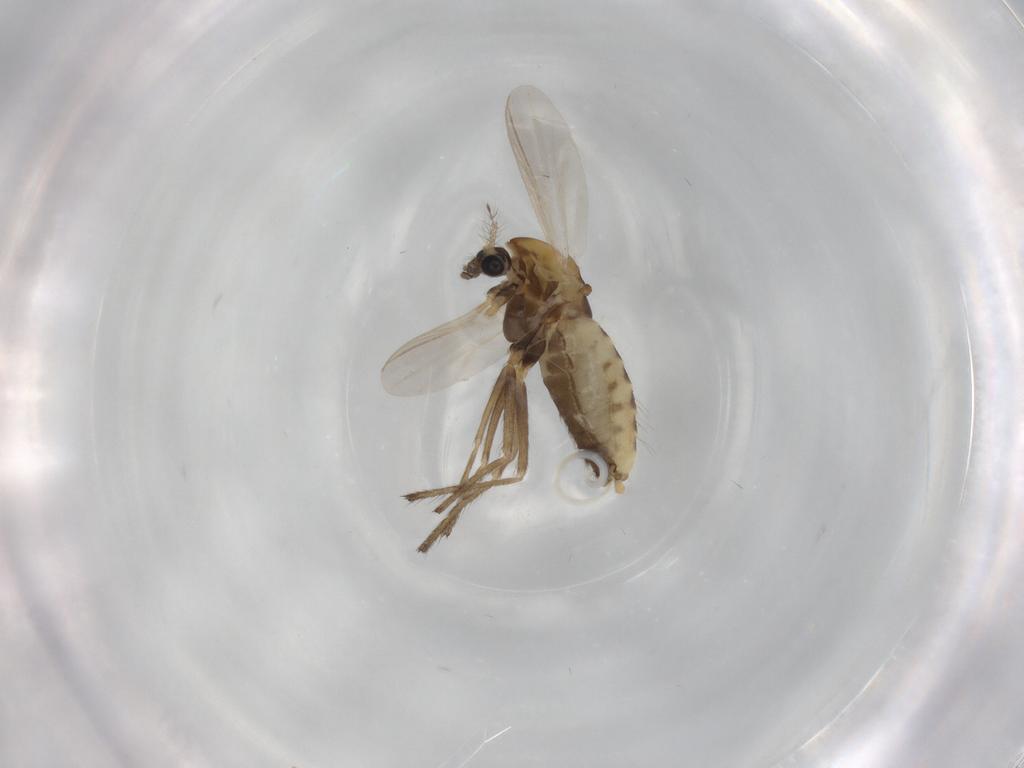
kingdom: Animalia
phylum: Arthropoda
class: Insecta
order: Diptera
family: Chironomidae
